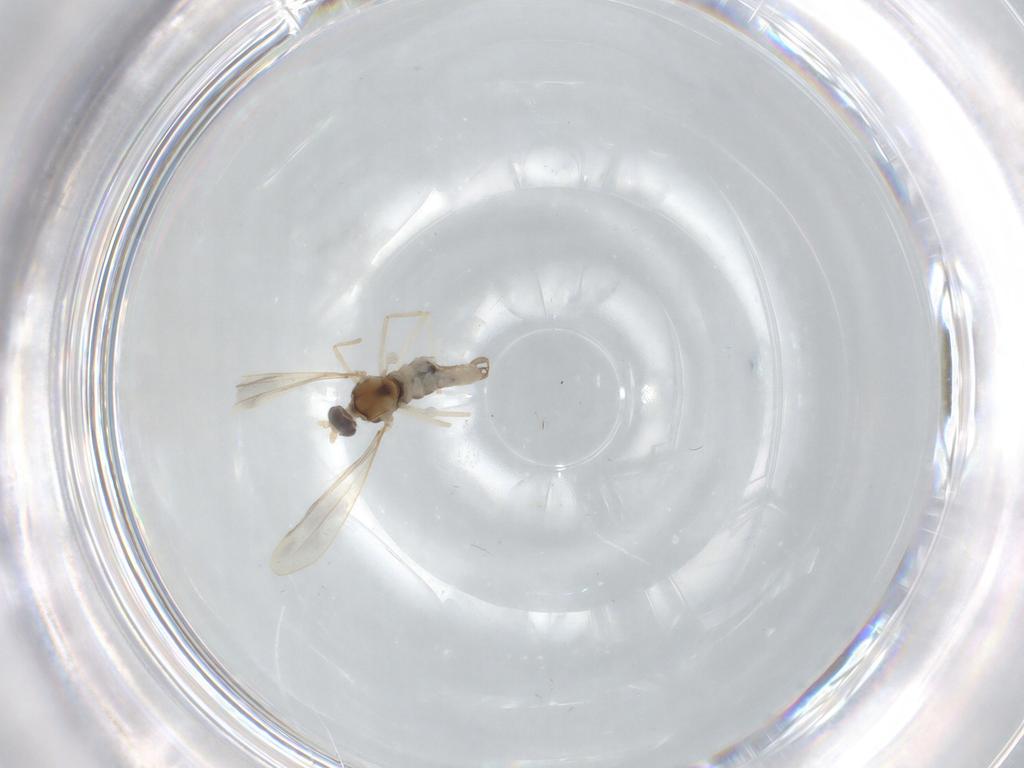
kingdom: Animalia
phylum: Arthropoda
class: Insecta
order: Diptera
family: Cecidomyiidae
